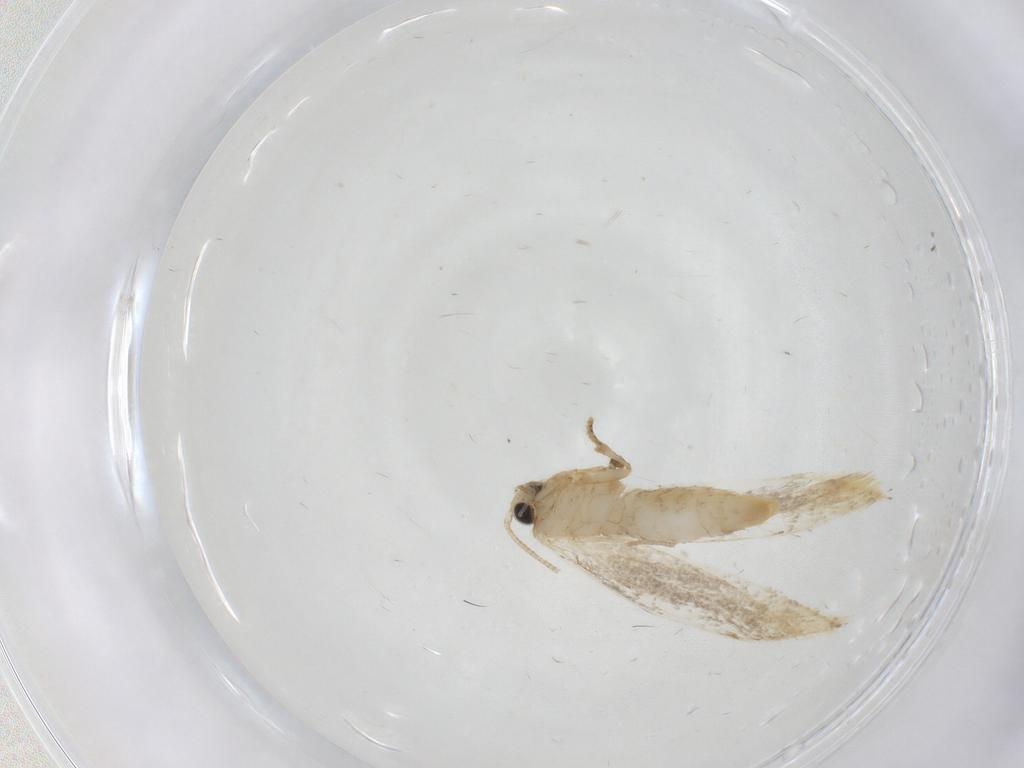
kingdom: Animalia
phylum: Arthropoda
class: Insecta
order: Lepidoptera
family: Tineidae
